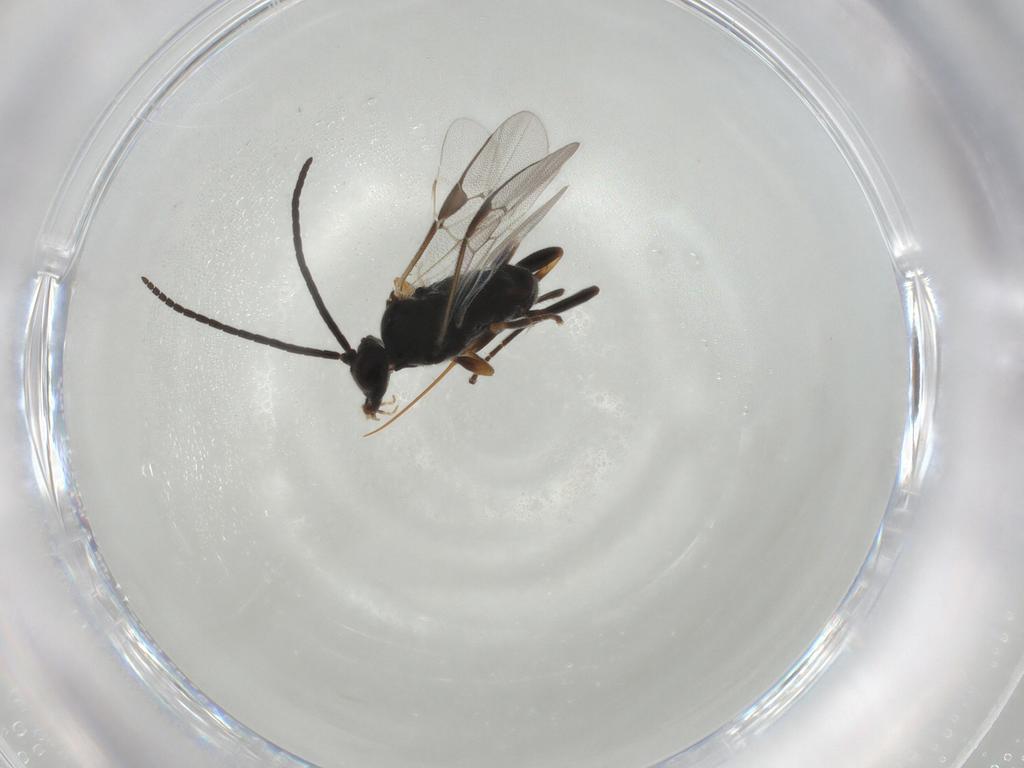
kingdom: Animalia
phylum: Arthropoda
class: Insecta
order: Hymenoptera
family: Braconidae
